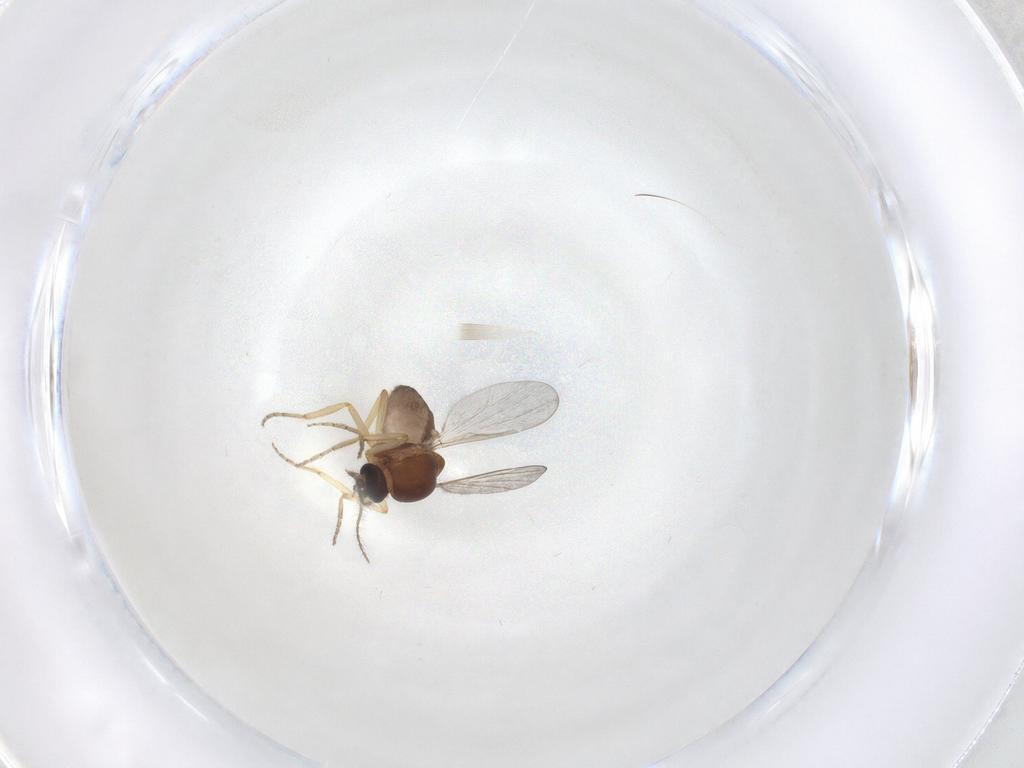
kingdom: Animalia
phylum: Arthropoda
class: Insecta
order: Diptera
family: Ceratopogonidae
